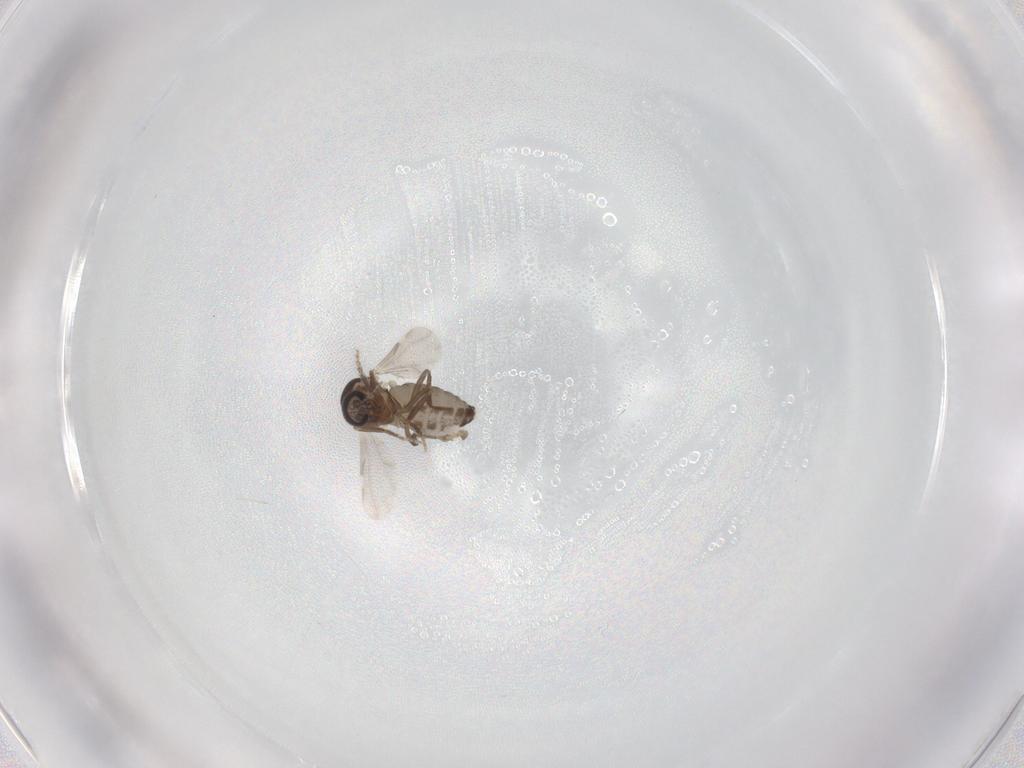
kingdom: Animalia
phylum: Arthropoda
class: Insecta
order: Diptera
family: Ceratopogonidae
